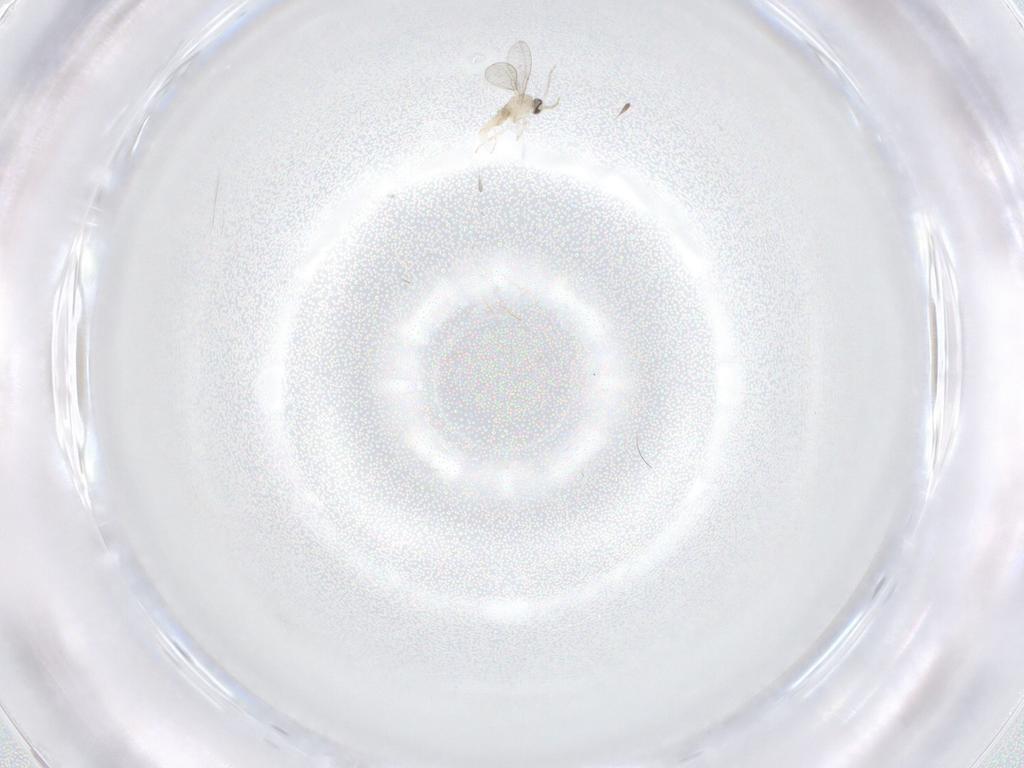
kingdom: Animalia
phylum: Arthropoda
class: Insecta
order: Diptera
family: Cecidomyiidae
